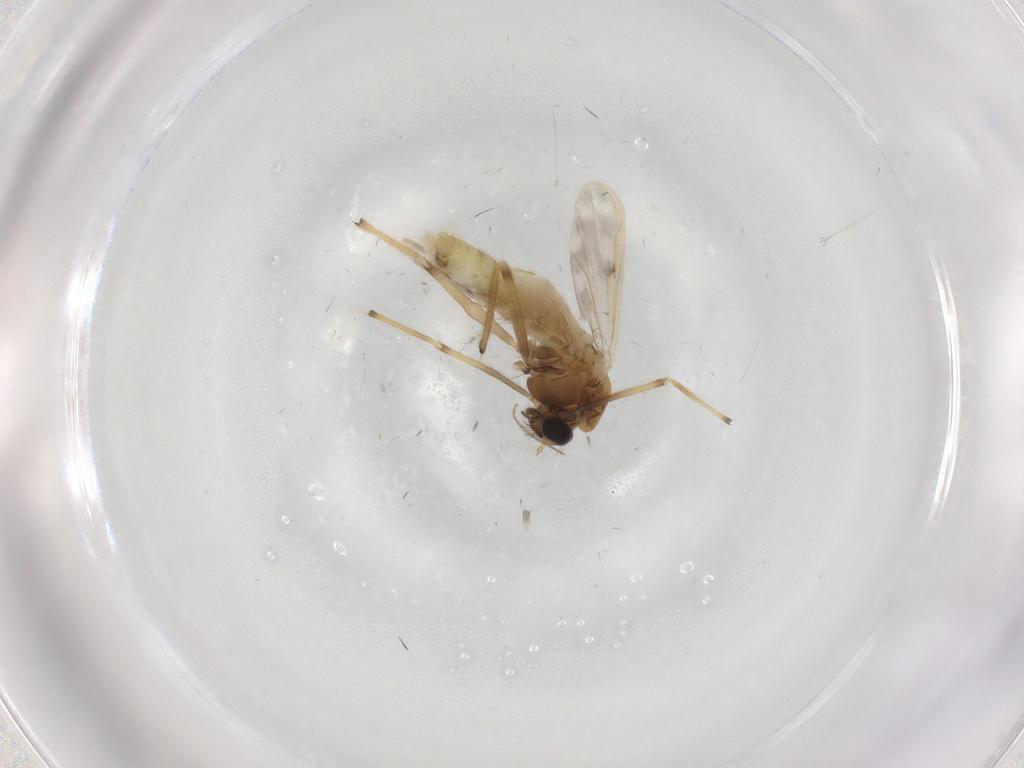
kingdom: Animalia
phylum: Arthropoda
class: Insecta
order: Diptera
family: Chironomidae
